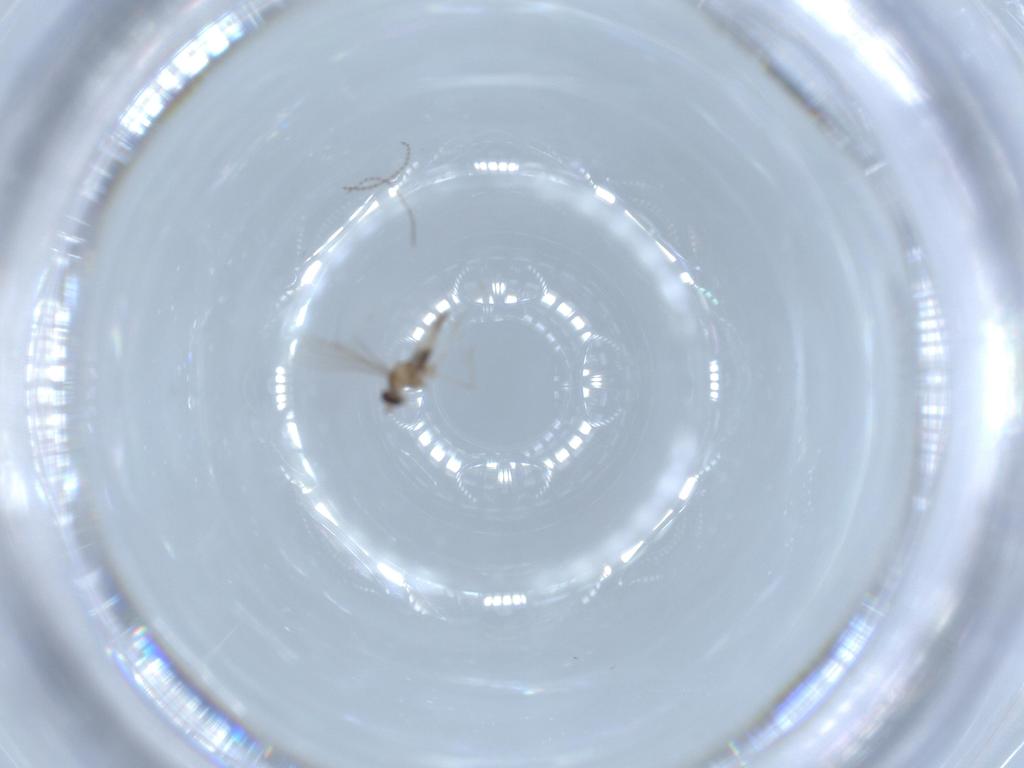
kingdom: Animalia
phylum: Arthropoda
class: Insecta
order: Diptera
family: Cecidomyiidae
